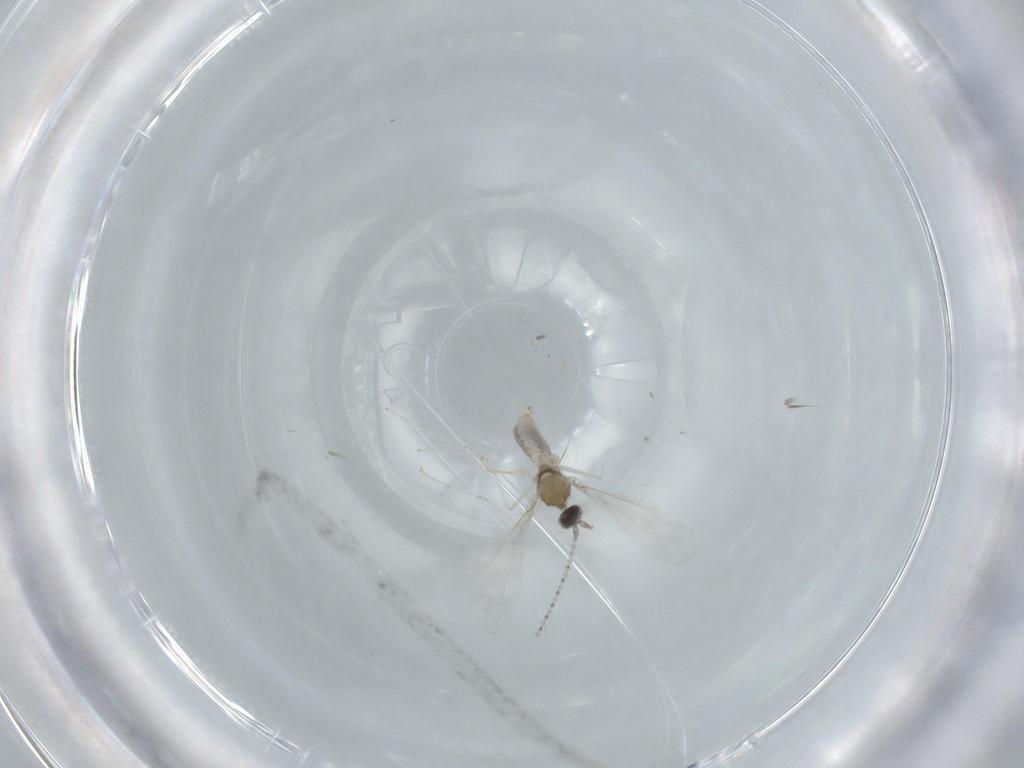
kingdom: Animalia
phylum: Arthropoda
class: Insecta
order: Diptera
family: Cecidomyiidae
